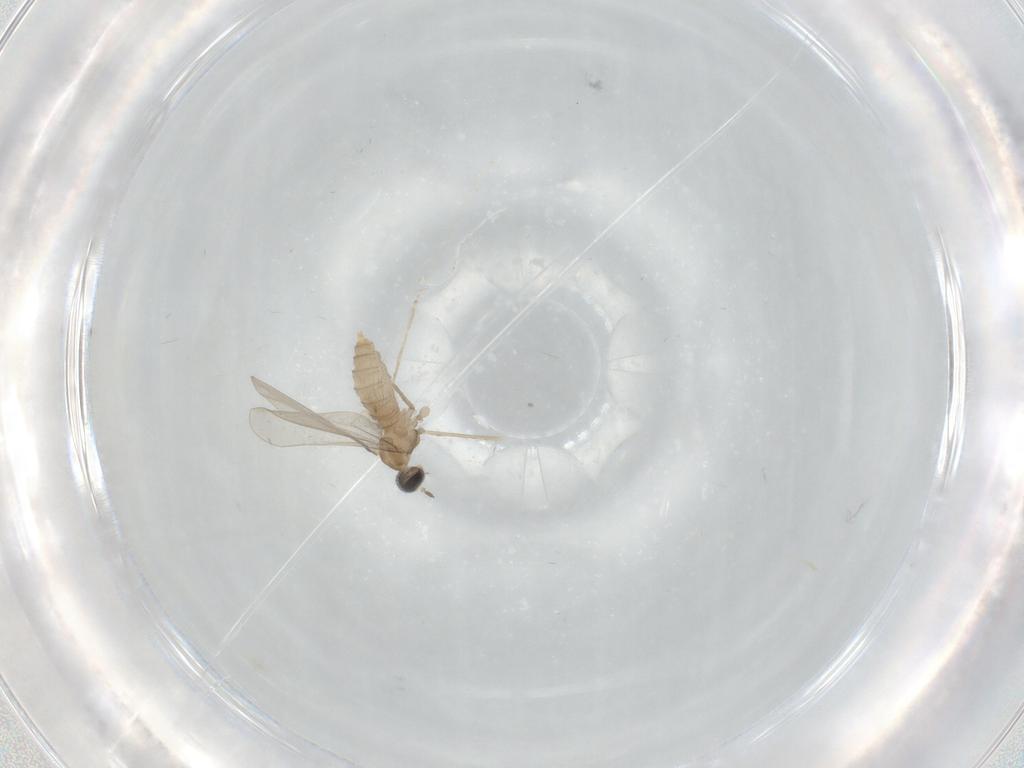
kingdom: Animalia
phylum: Arthropoda
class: Insecta
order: Diptera
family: Cecidomyiidae
